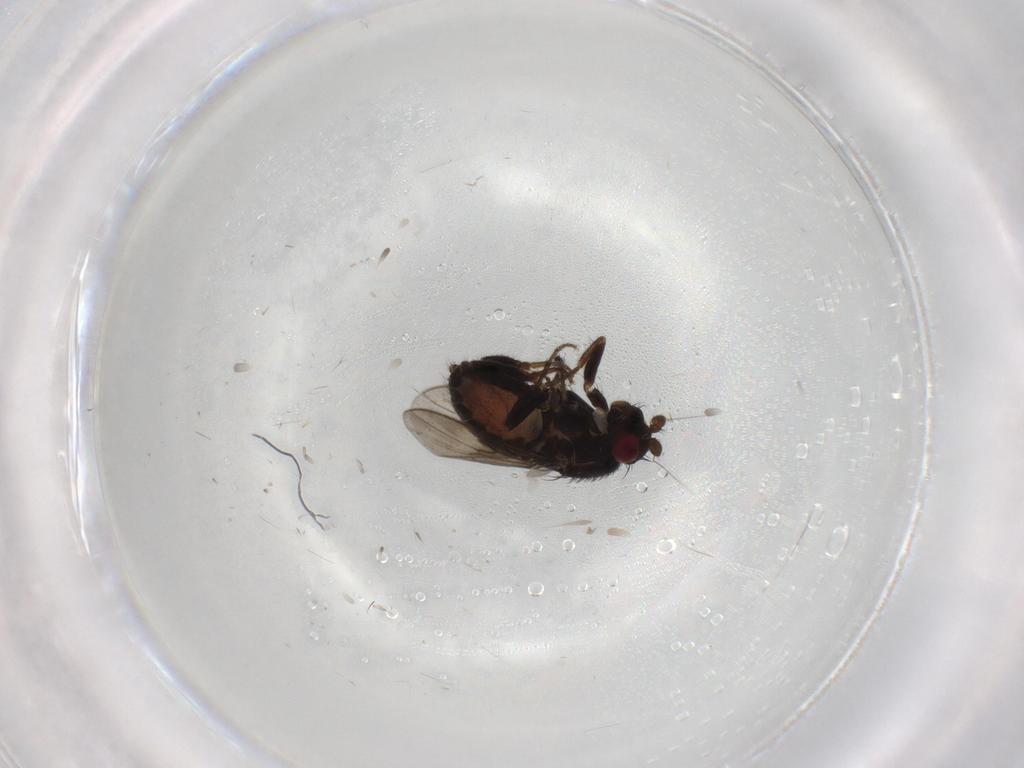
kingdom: Animalia
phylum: Arthropoda
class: Insecta
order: Diptera
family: Sphaeroceridae
